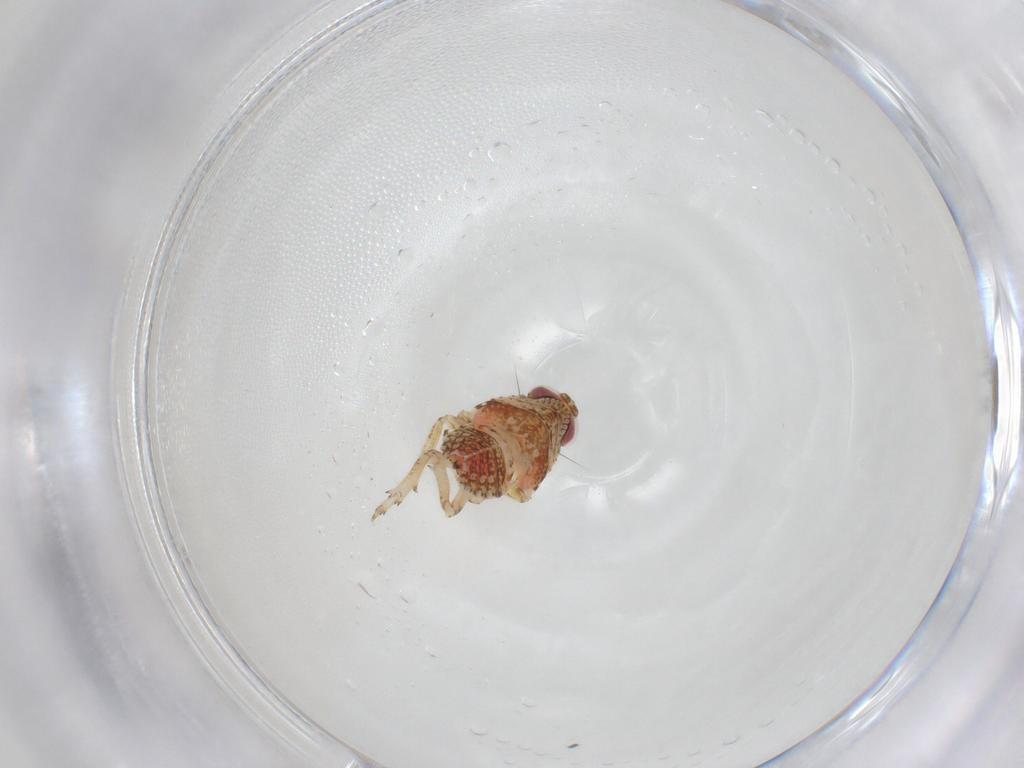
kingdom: Animalia
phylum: Arthropoda
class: Insecta
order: Hemiptera
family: Issidae
